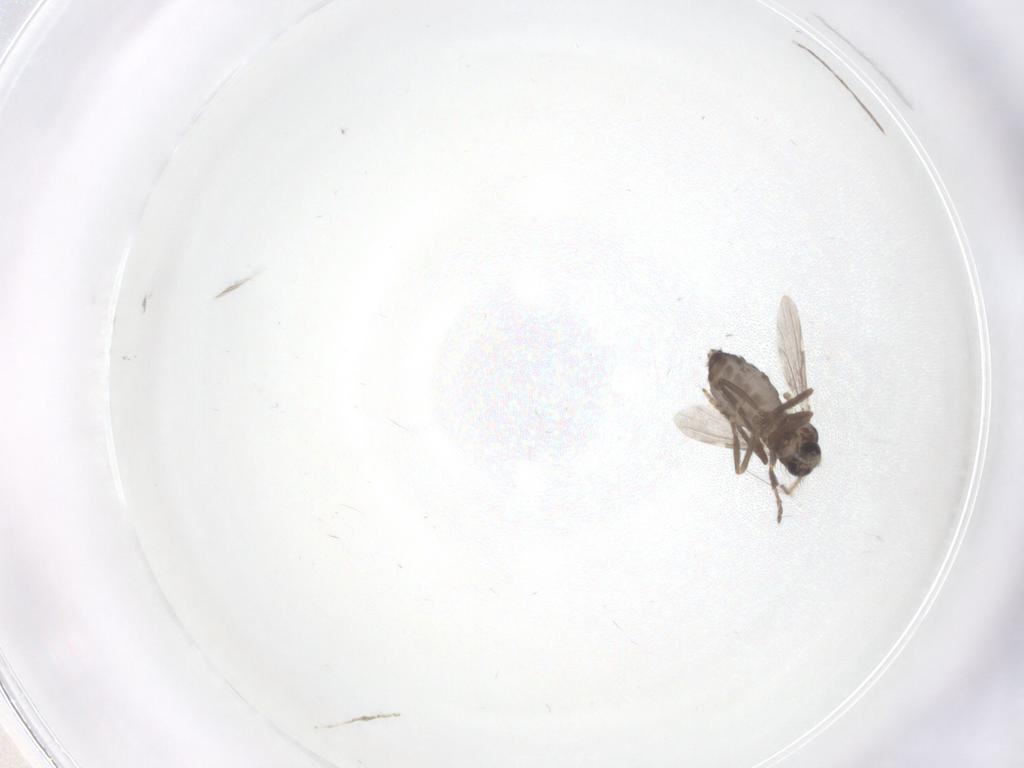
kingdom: Animalia
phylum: Arthropoda
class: Insecta
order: Diptera
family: Ceratopogonidae
